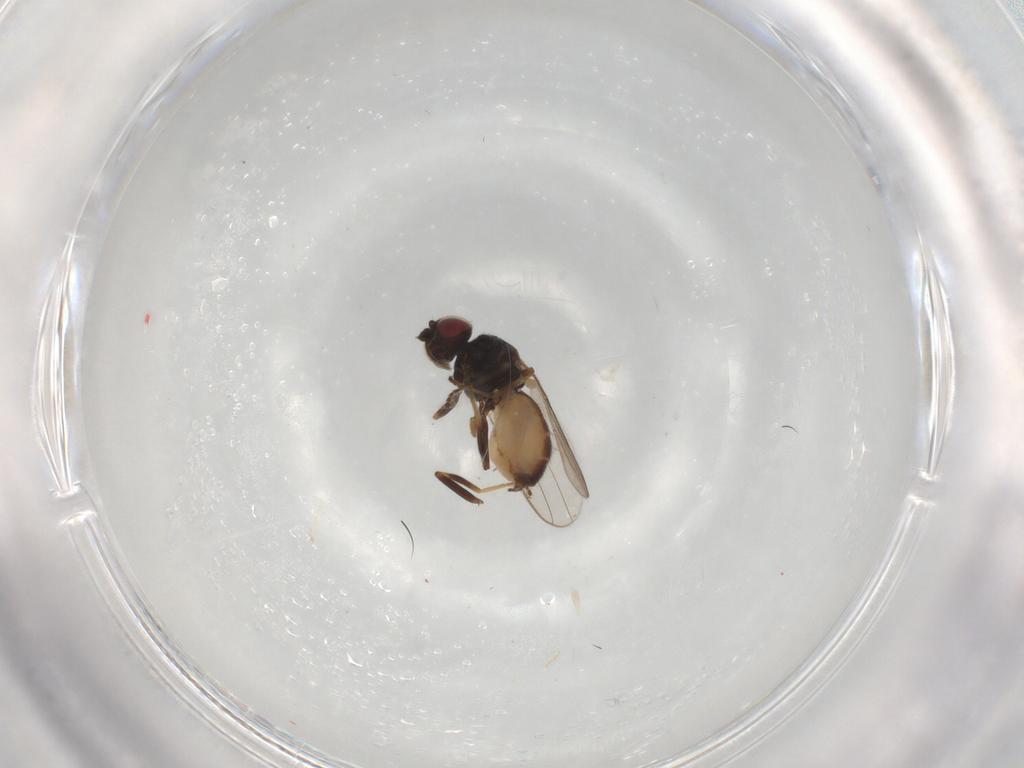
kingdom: Animalia
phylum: Arthropoda
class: Insecta
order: Diptera
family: Chloropidae
